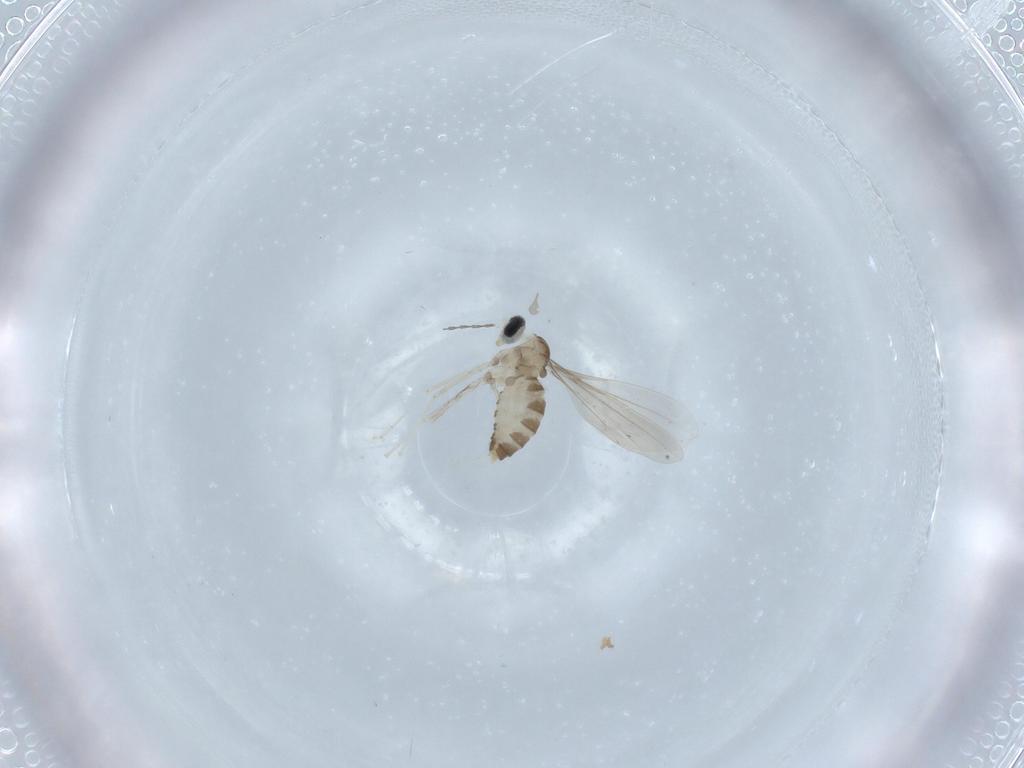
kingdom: Animalia
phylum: Arthropoda
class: Insecta
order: Diptera
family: Cecidomyiidae
